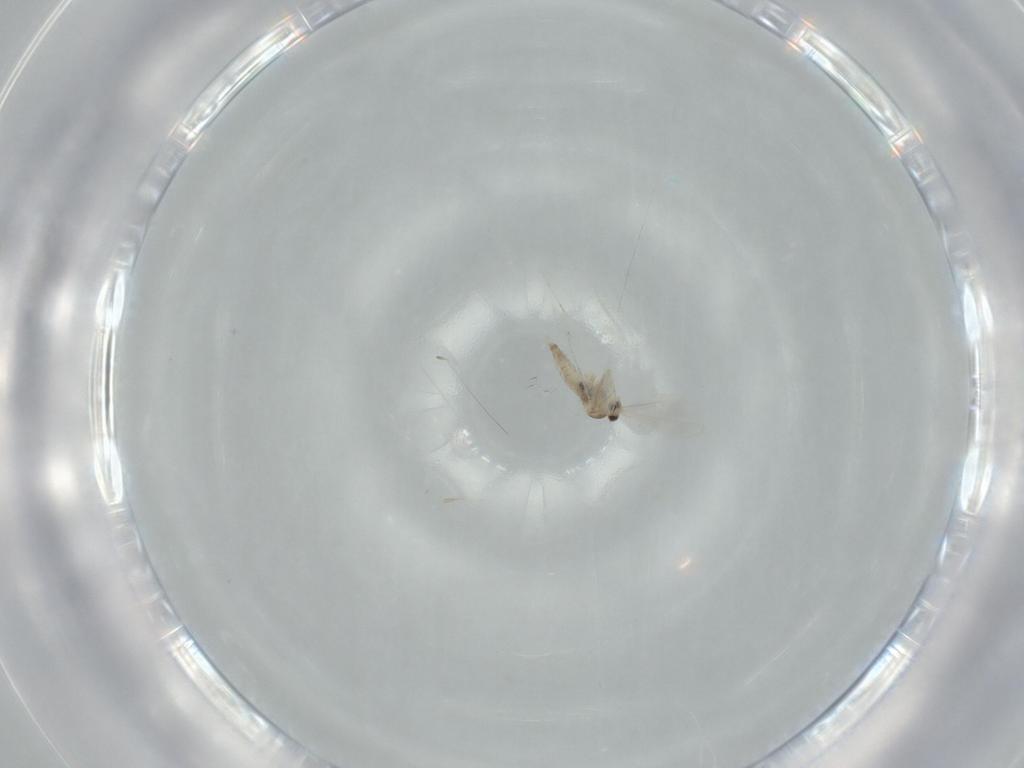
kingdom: Animalia
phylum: Arthropoda
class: Insecta
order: Diptera
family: Cecidomyiidae
